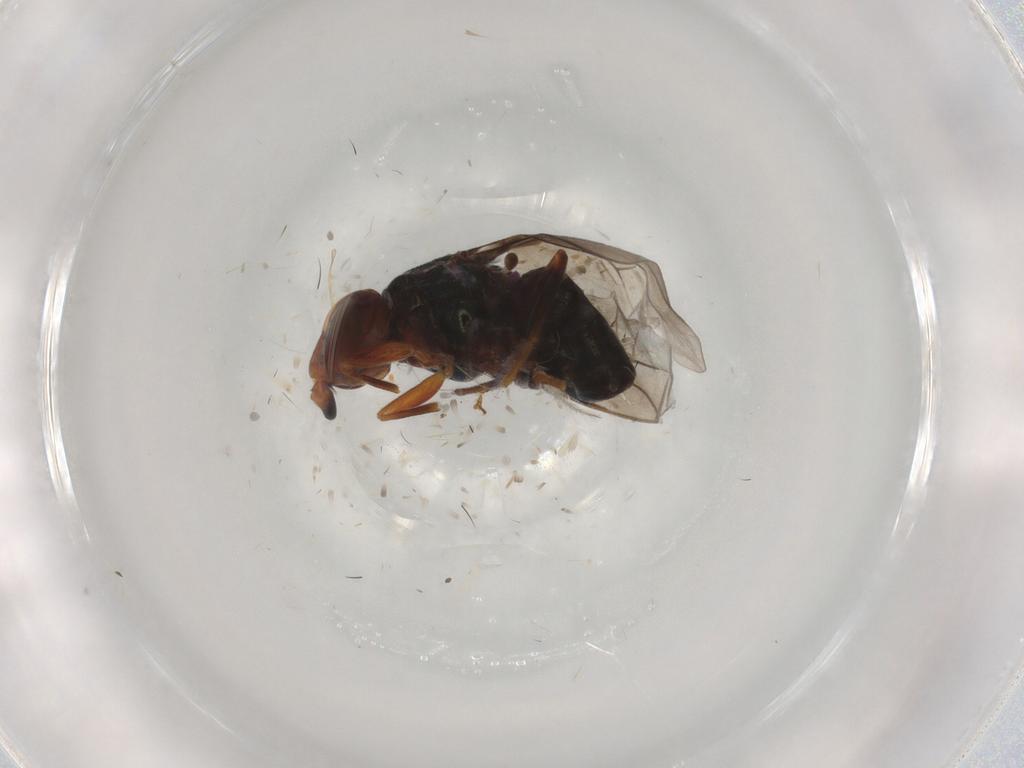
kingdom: Animalia
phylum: Arthropoda
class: Insecta
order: Diptera
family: Chloropidae
